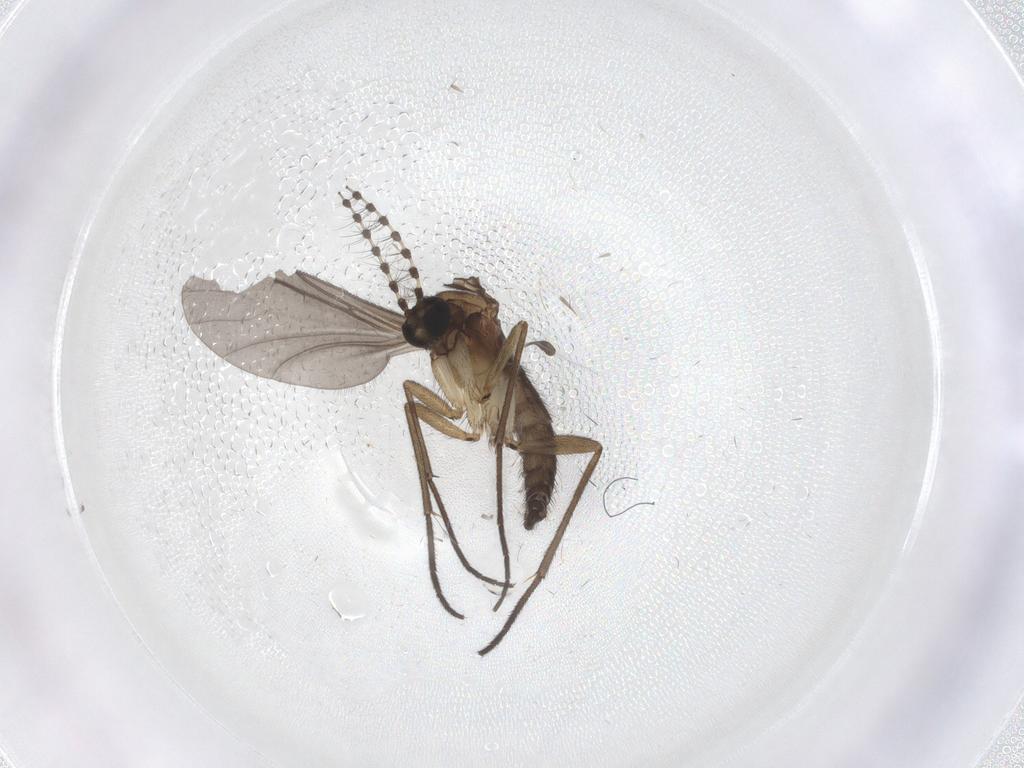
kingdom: Animalia
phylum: Arthropoda
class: Insecta
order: Diptera
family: Sciaridae
